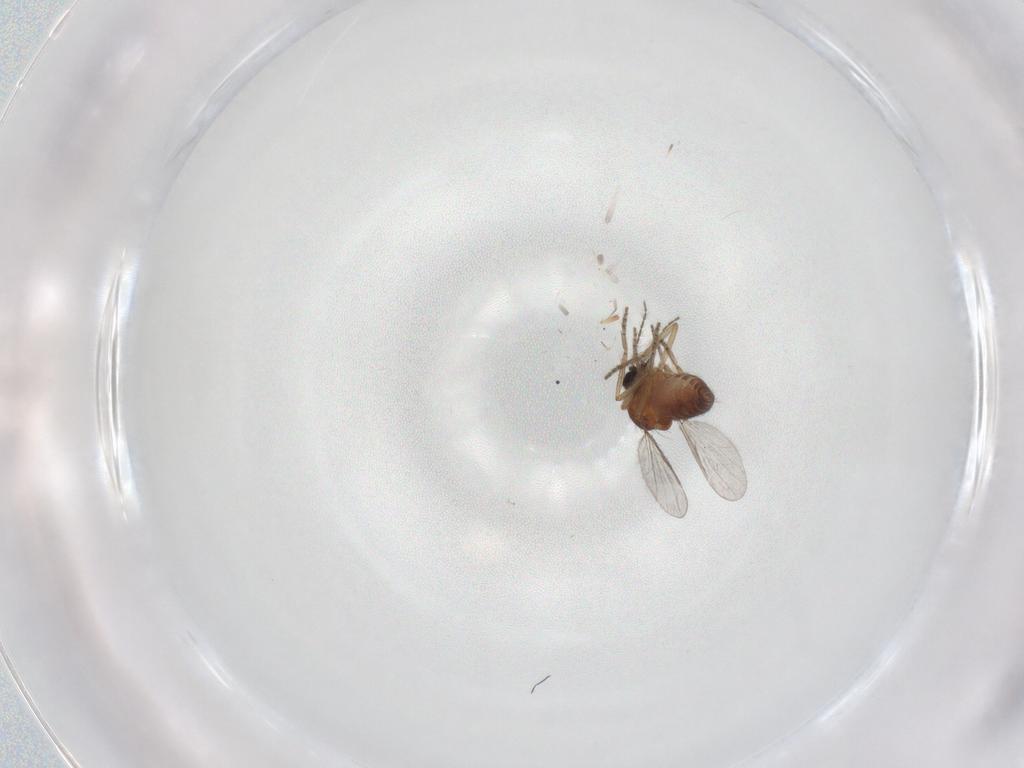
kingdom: Animalia
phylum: Arthropoda
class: Insecta
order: Diptera
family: Ceratopogonidae
